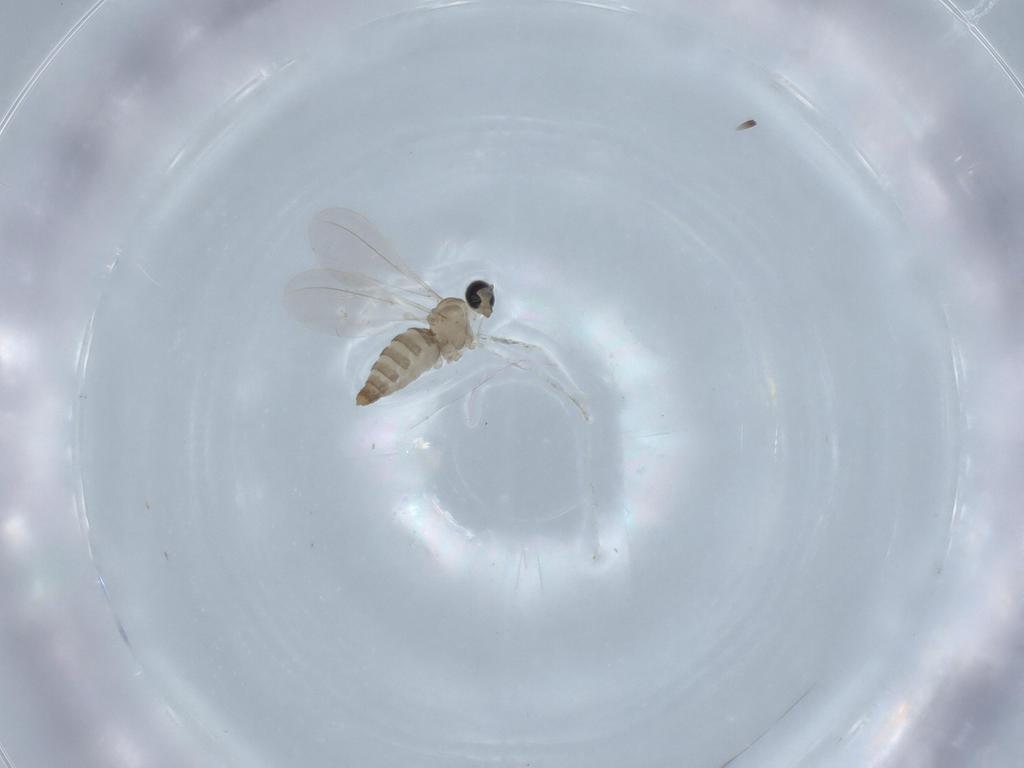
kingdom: Animalia
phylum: Arthropoda
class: Insecta
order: Diptera
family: Cecidomyiidae
